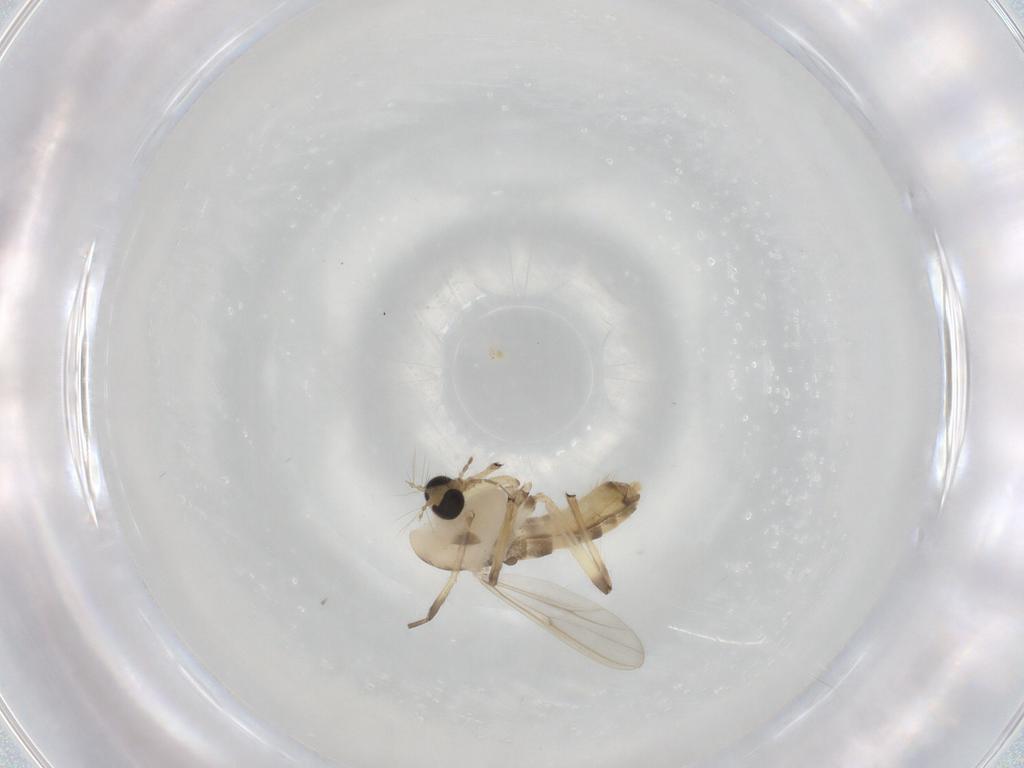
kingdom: Animalia
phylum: Arthropoda
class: Insecta
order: Diptera
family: Chironomidae
